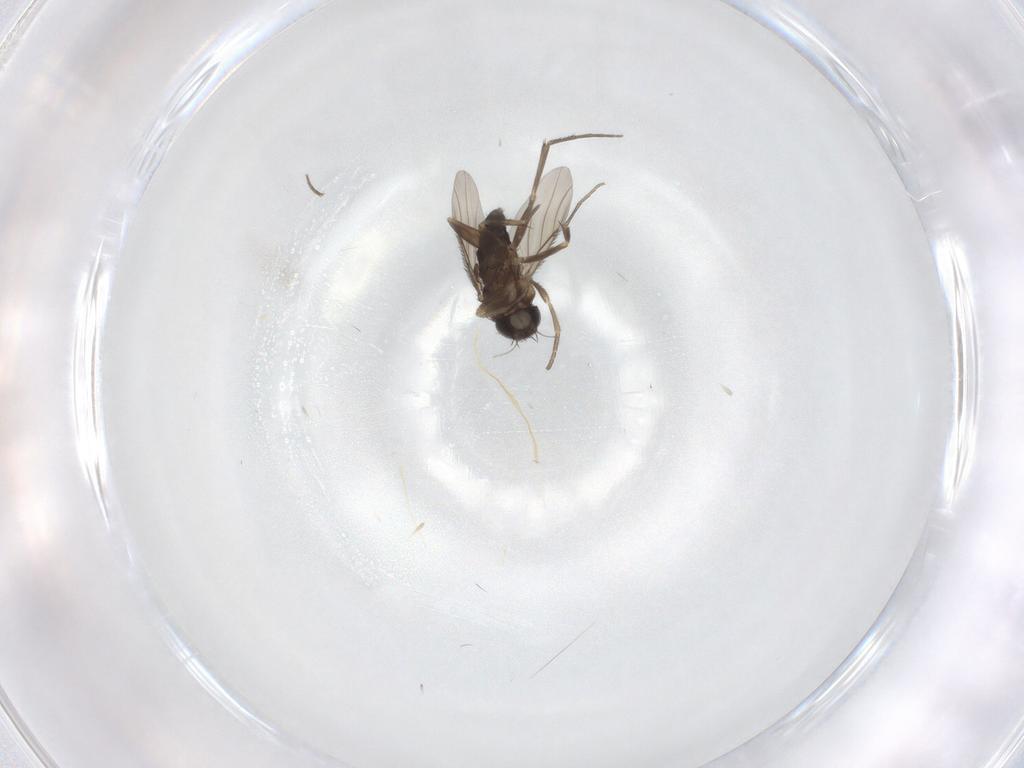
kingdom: Animalia
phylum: Arthropoda
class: Insecta
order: Diptera
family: Phoridae
